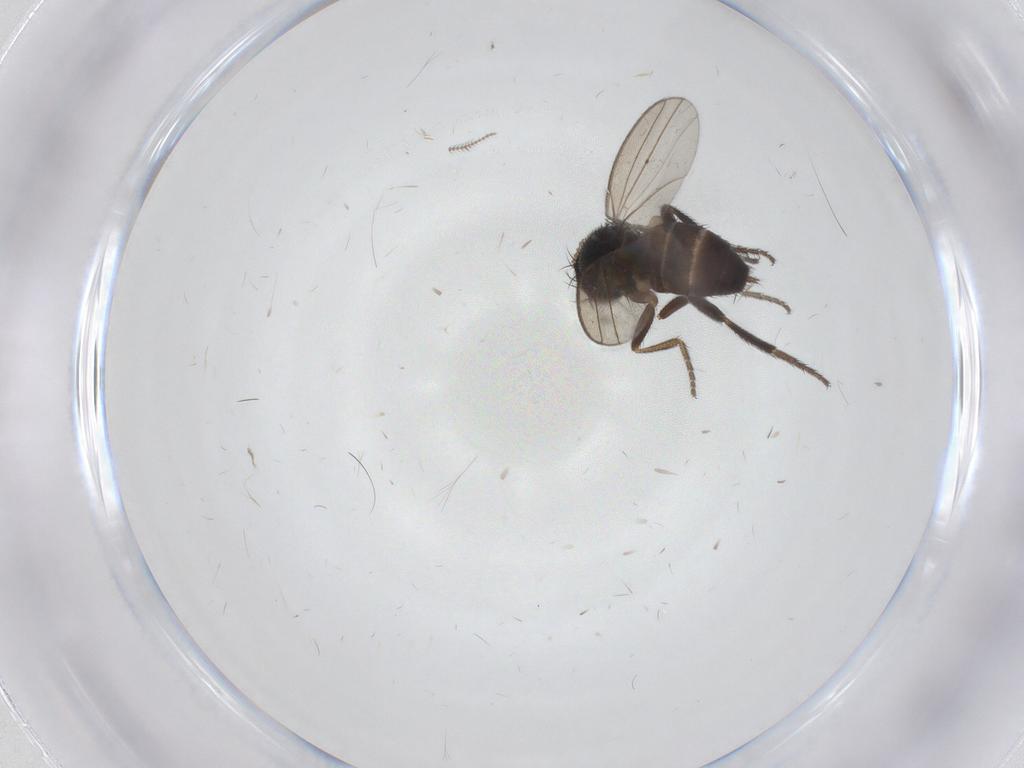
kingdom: Animalia
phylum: Arthropoda
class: Insecta
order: Diptera
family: Milichiidae
